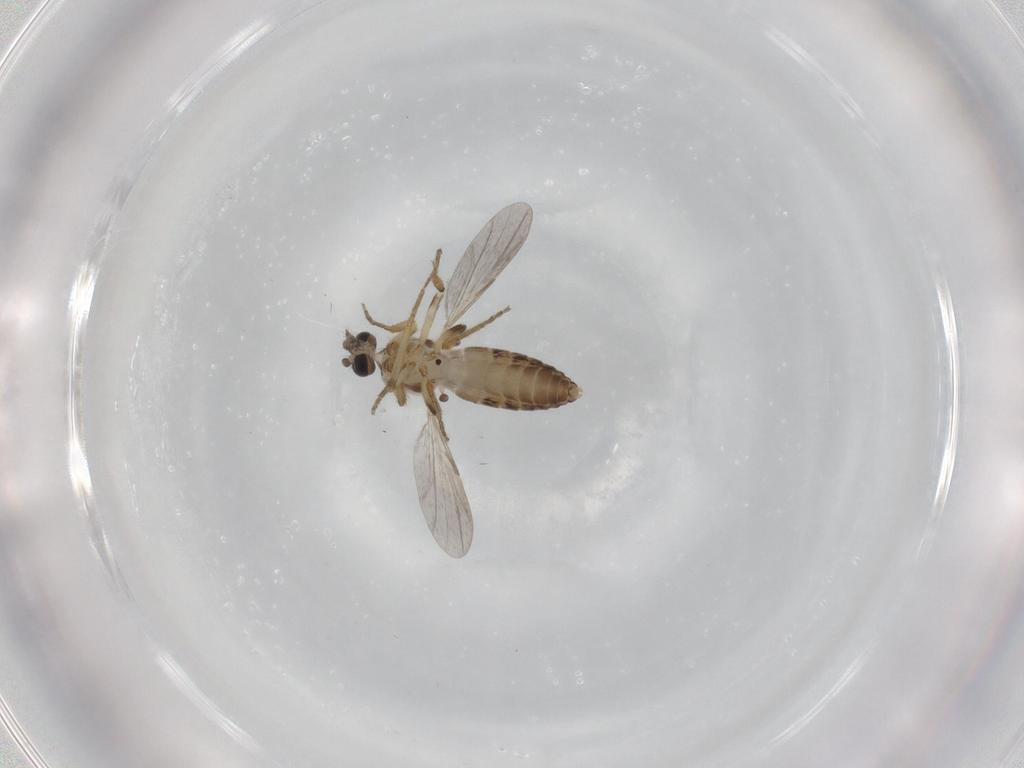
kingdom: Animalia
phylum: Arthropoda
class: Insecta
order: Diptera
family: Ceratopogonidae
